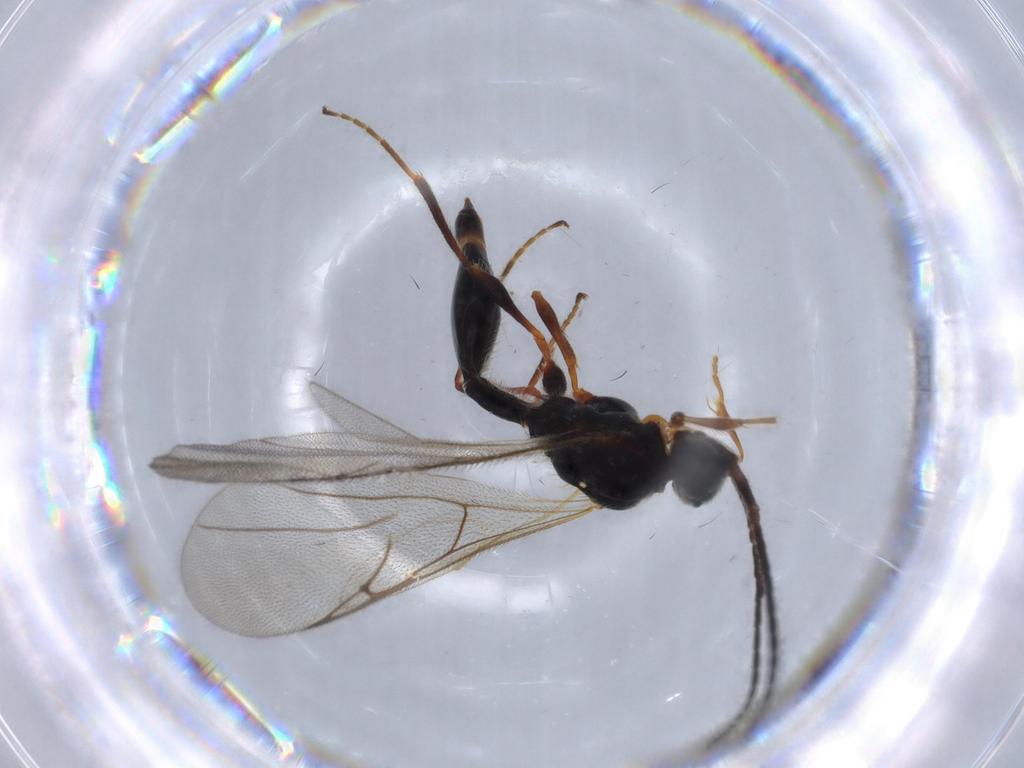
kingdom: Animalia
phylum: Arthropoda
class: Insecta
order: Hymenoptera
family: Diapriidae
